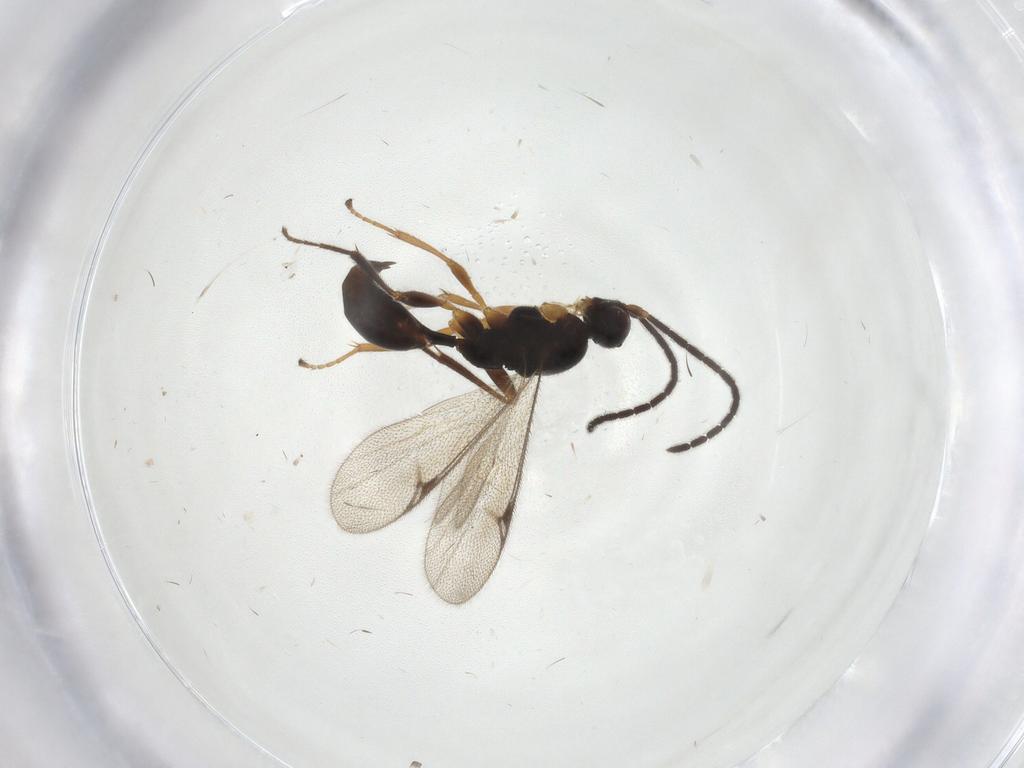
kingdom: Animalia
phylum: Arthropoda
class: Insecta
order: Hymenoptera
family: Proctotrupidae
